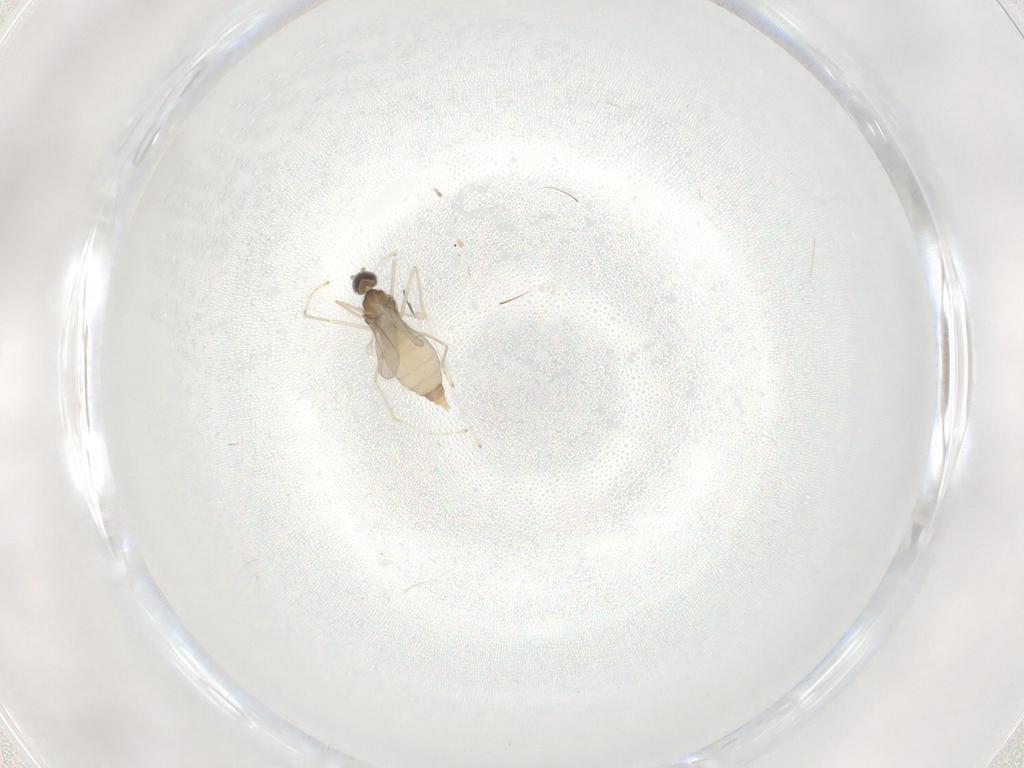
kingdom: Animalia
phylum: Arthropoda
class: Insecta
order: Diptera
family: Cecidomyiidae
